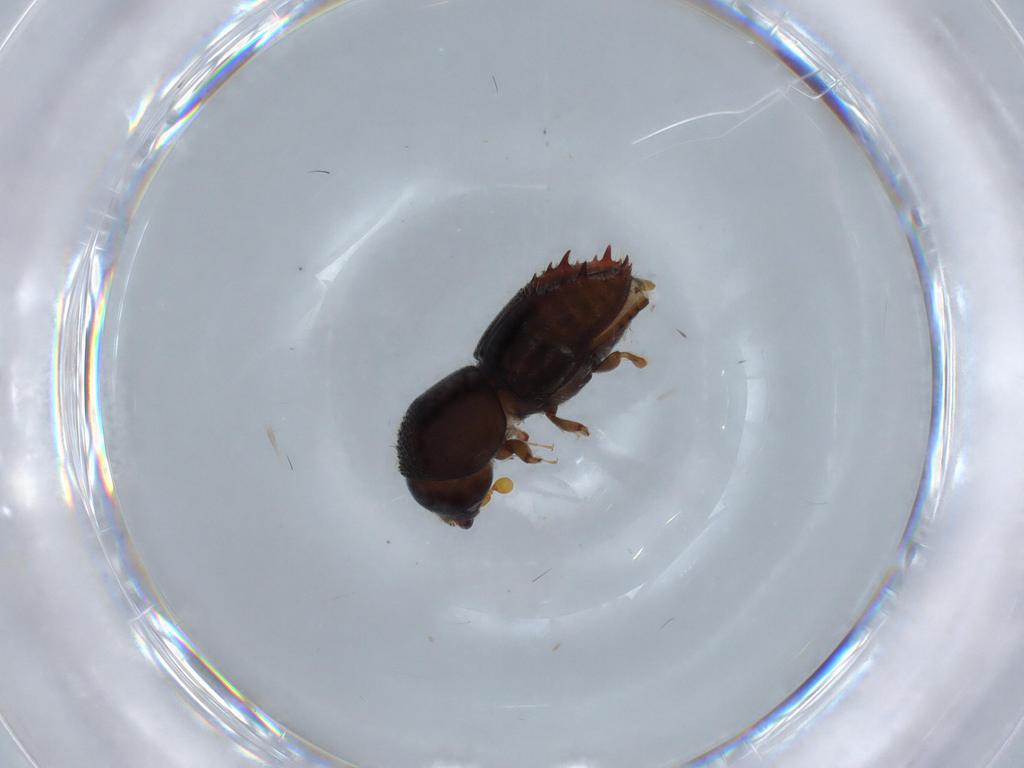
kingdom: Animalia
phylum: Arthropoda
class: Insecta
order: Coleoptera
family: Curculionidae
